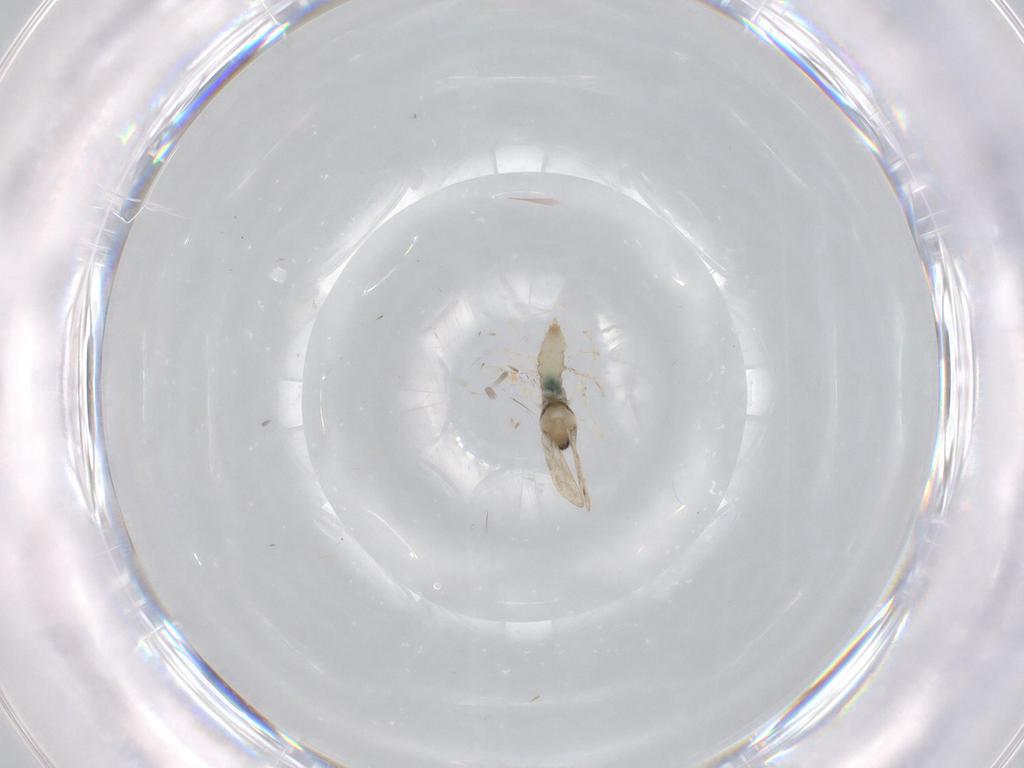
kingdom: Animalia
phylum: Arthropoda
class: Insecta
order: Diptera
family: Cecidomyiidae
